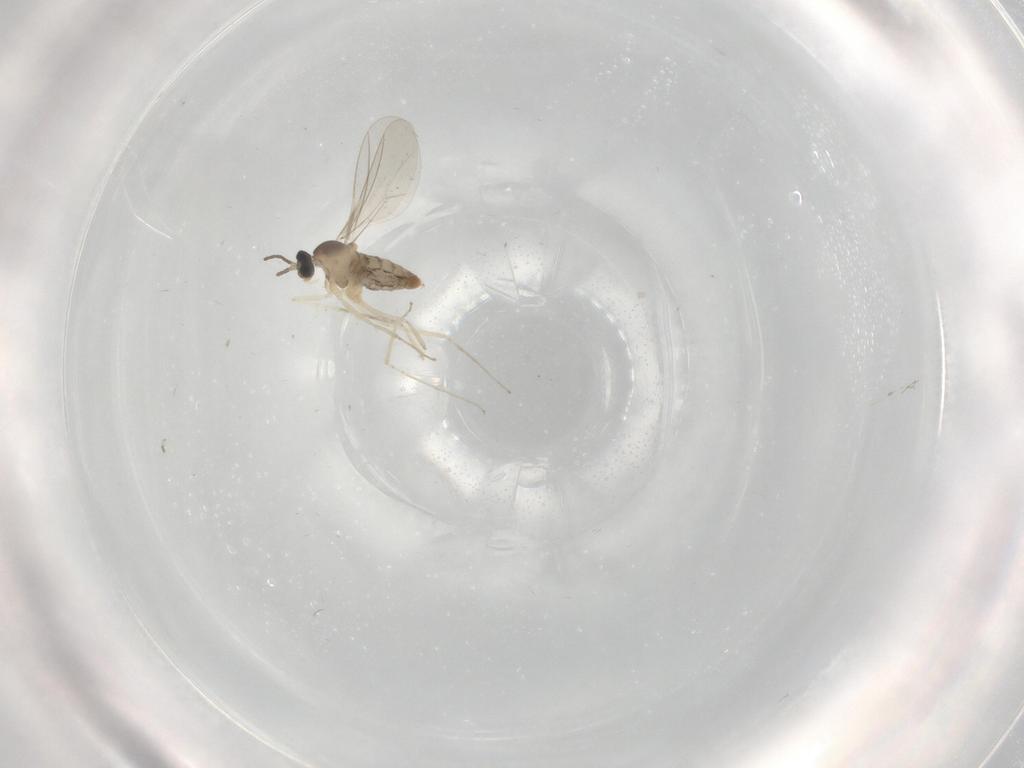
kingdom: Animalia
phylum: Arthropoda
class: Insecta
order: Diptera
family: Cecidomyiidae
